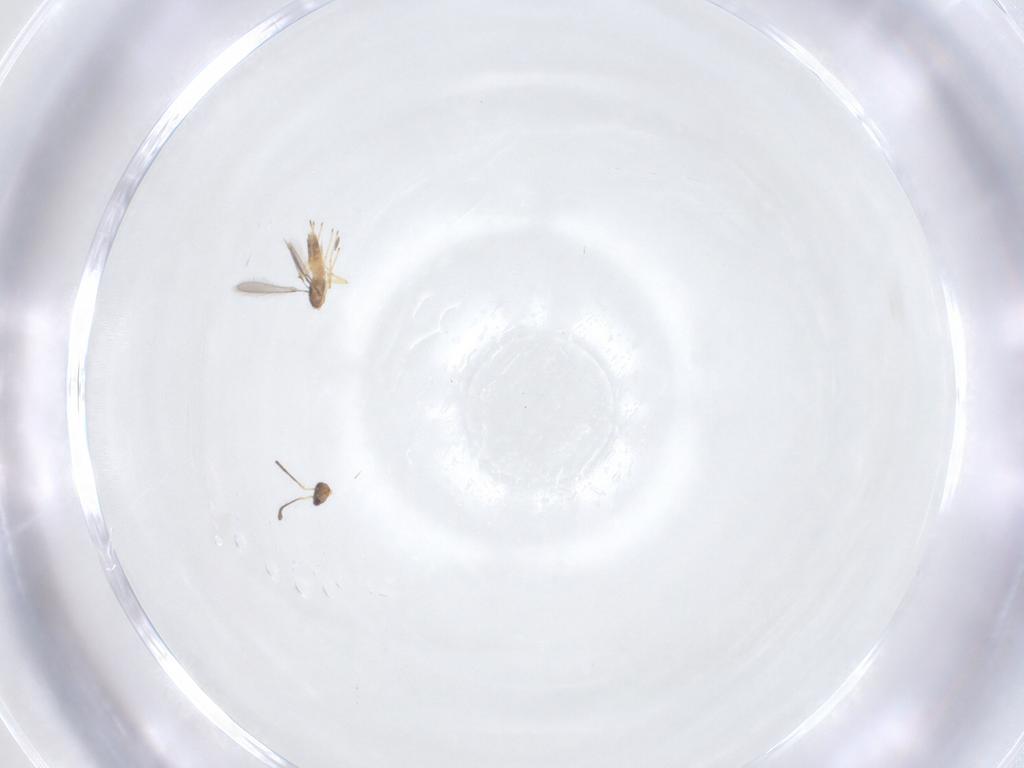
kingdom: Animalia
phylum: Arthropoda
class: Insecta
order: Hymenoptera
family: Mymaridae
